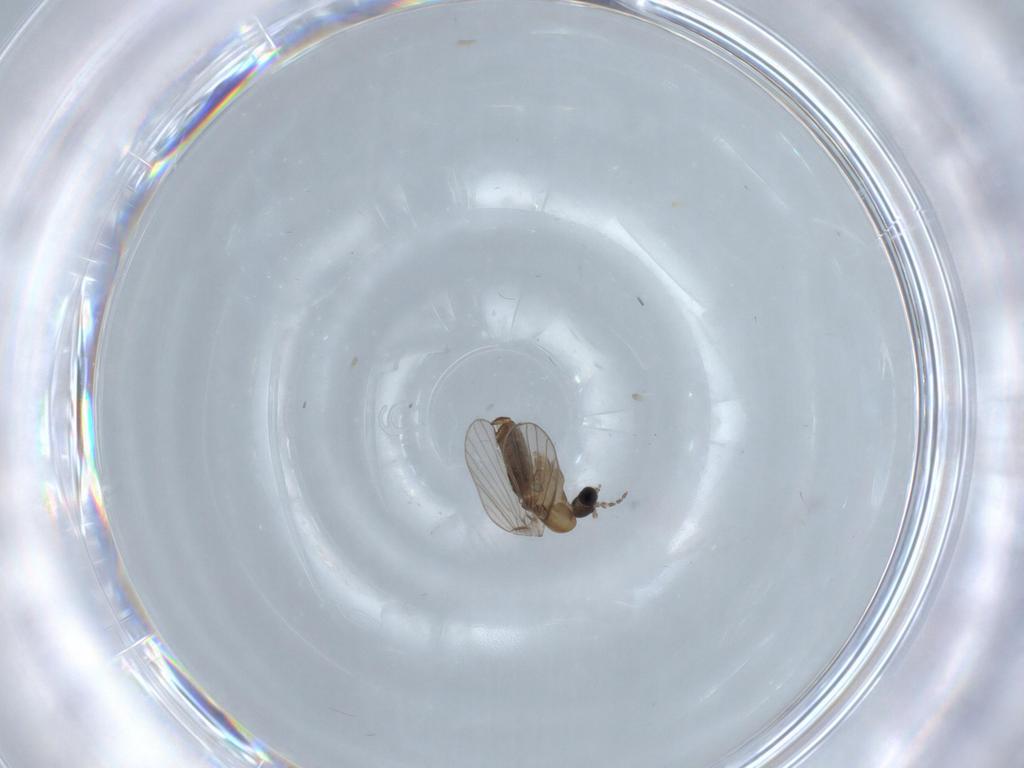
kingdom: Animalia
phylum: Arthropoda
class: Insecta
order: Diptera
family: Psychodidae
